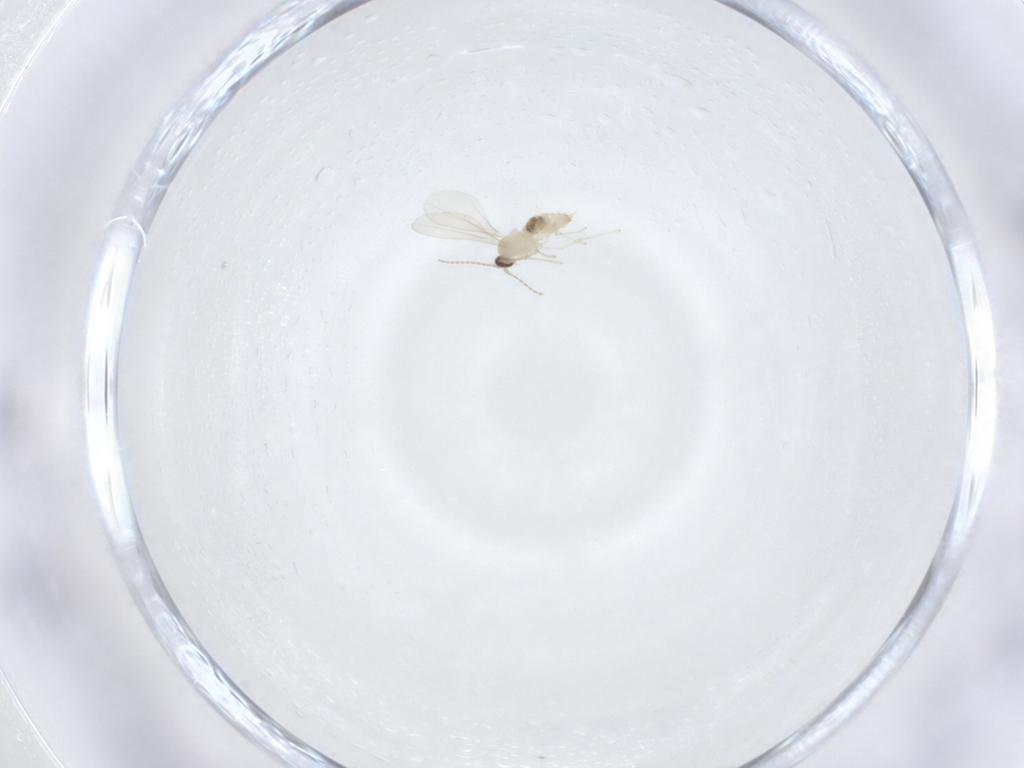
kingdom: Animalia
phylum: Arthropoda
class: Insecta
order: Diptera
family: Cecidomyiidae
